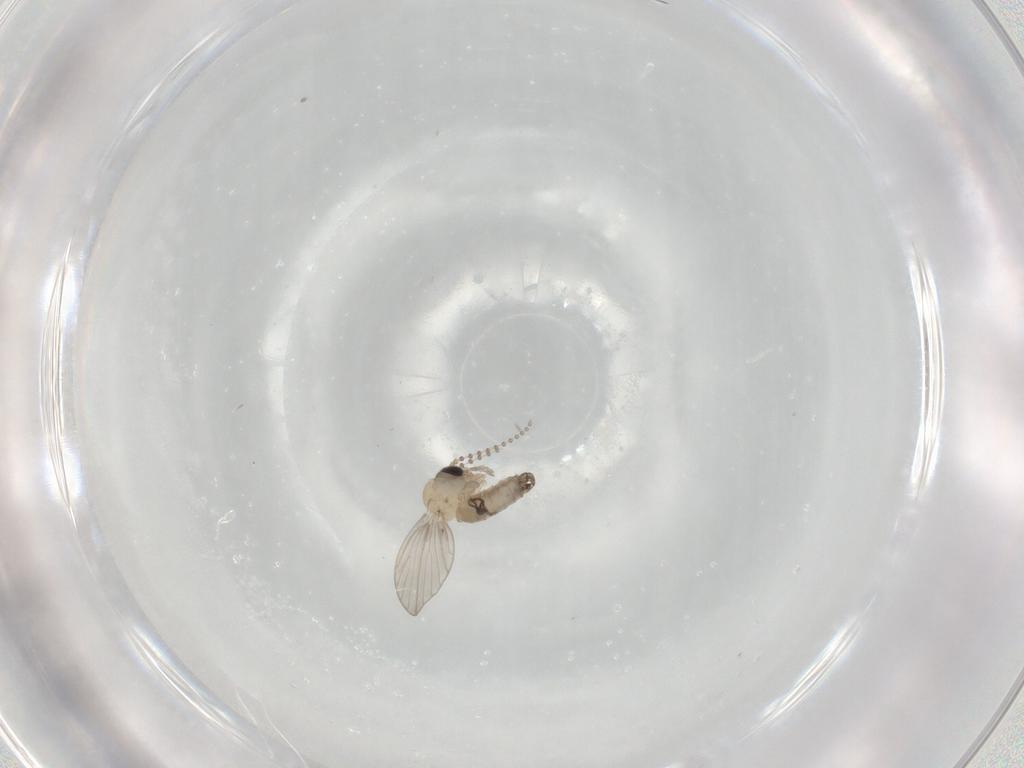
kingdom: Animalia
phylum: Arthropoda
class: Insecta
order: Diptera
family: Psychodidae
